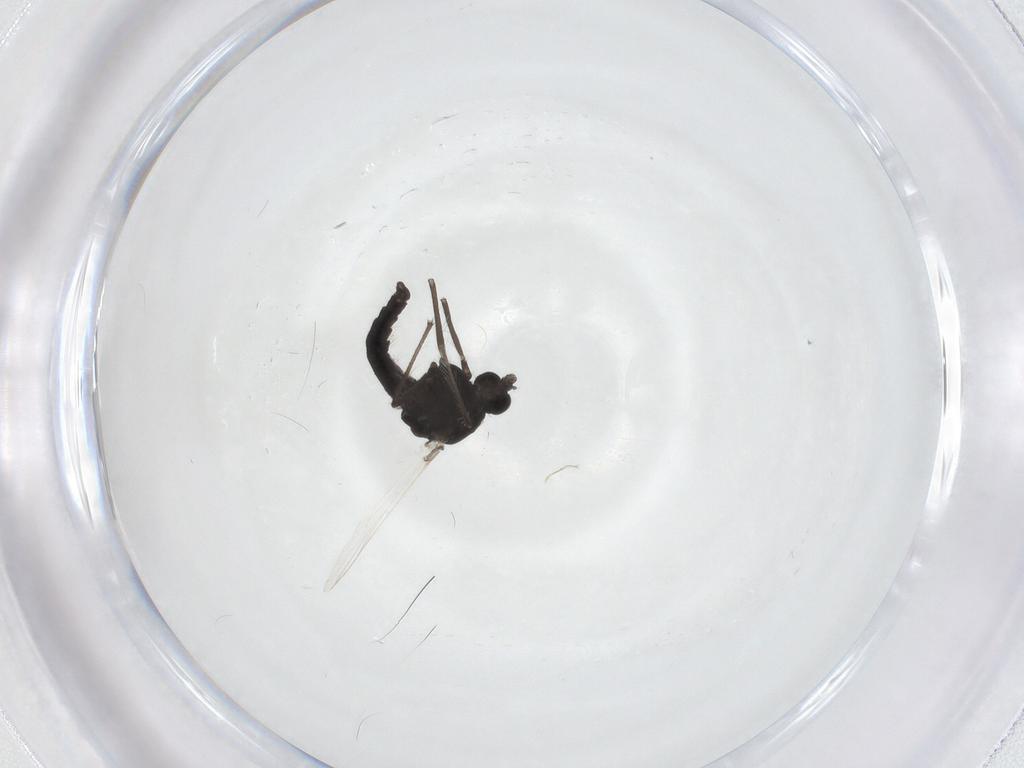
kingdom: Animalia
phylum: Arthropoda
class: Insecta
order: Diptera
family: Chironomidae
